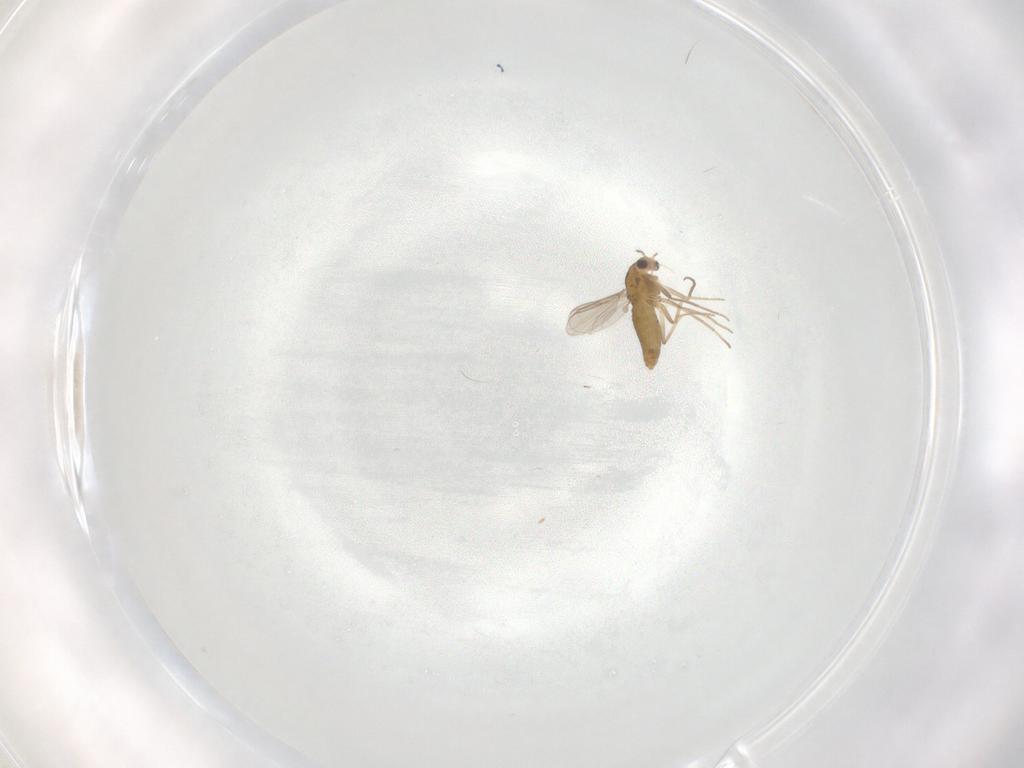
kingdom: Animalia
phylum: Arthropoda
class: Insecta
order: Diptera
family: Chironomidae
